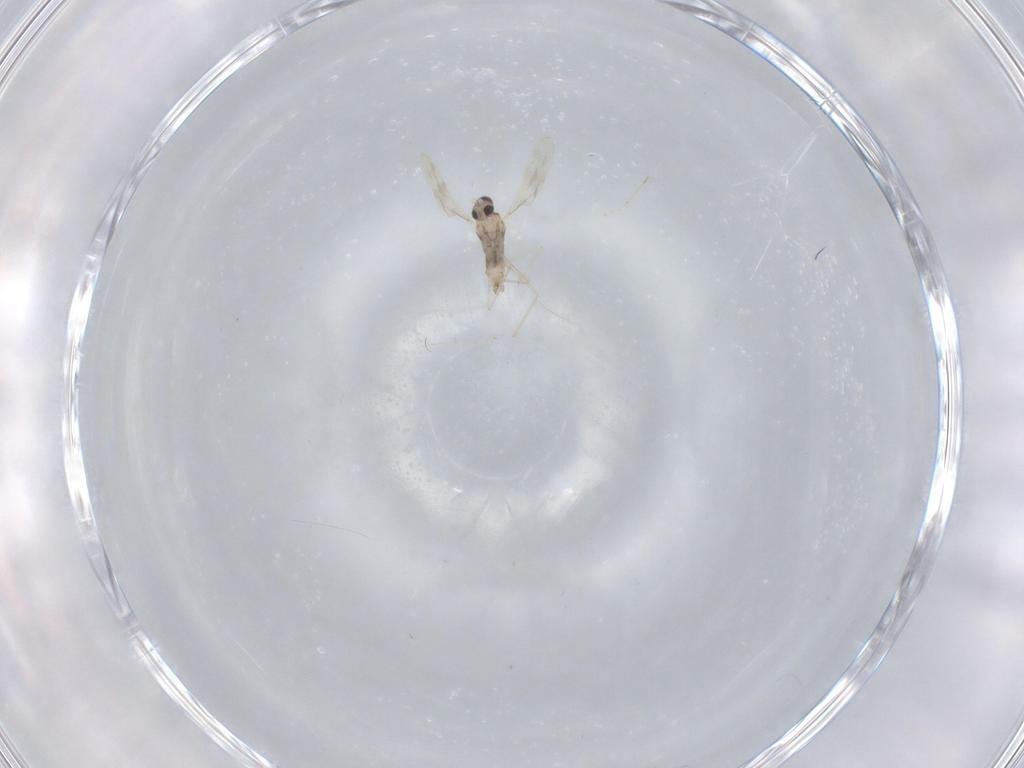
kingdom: Animalia
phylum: Arthropoda
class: Insecta
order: Diptera
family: Cecidomyiidae
